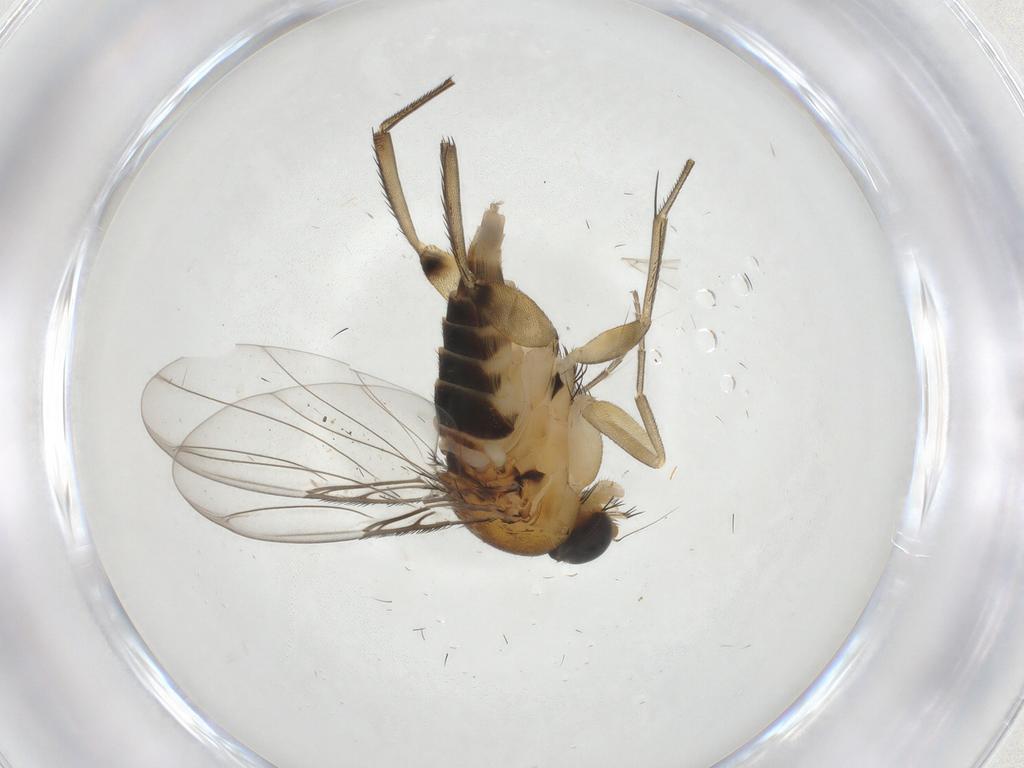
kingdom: Animalia
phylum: Arthropoda
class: Insecta
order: Diptera
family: Phoridae
